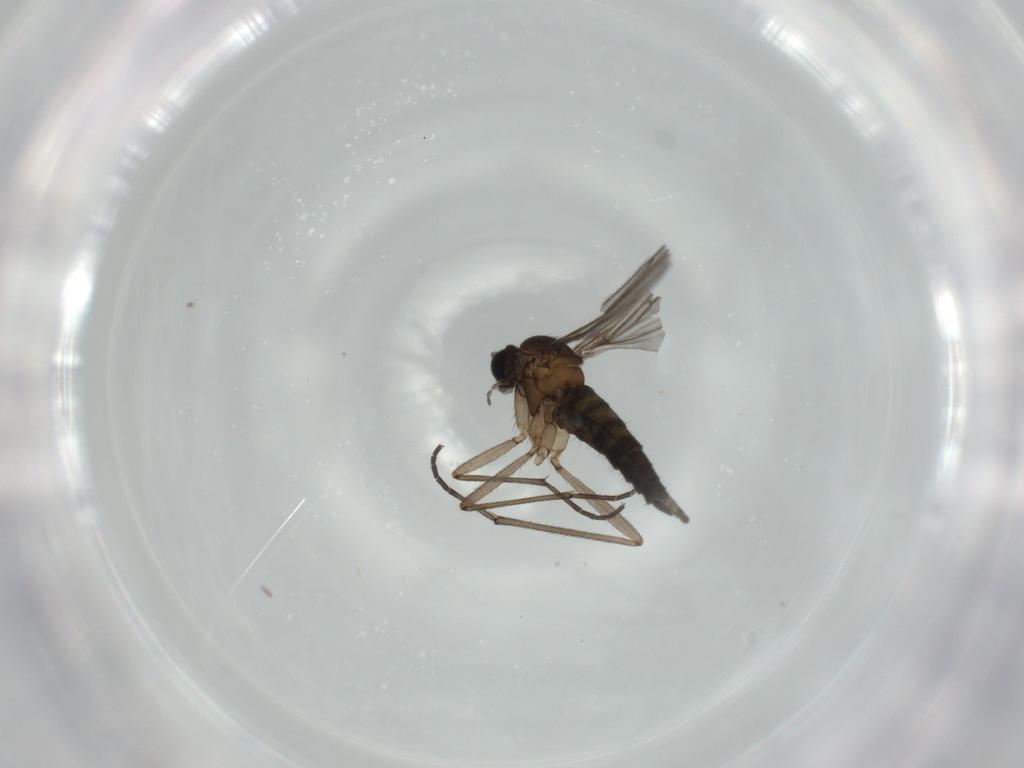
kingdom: Animalia
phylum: Arthropoda
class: Insecta
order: Diptera
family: Sciaridae
